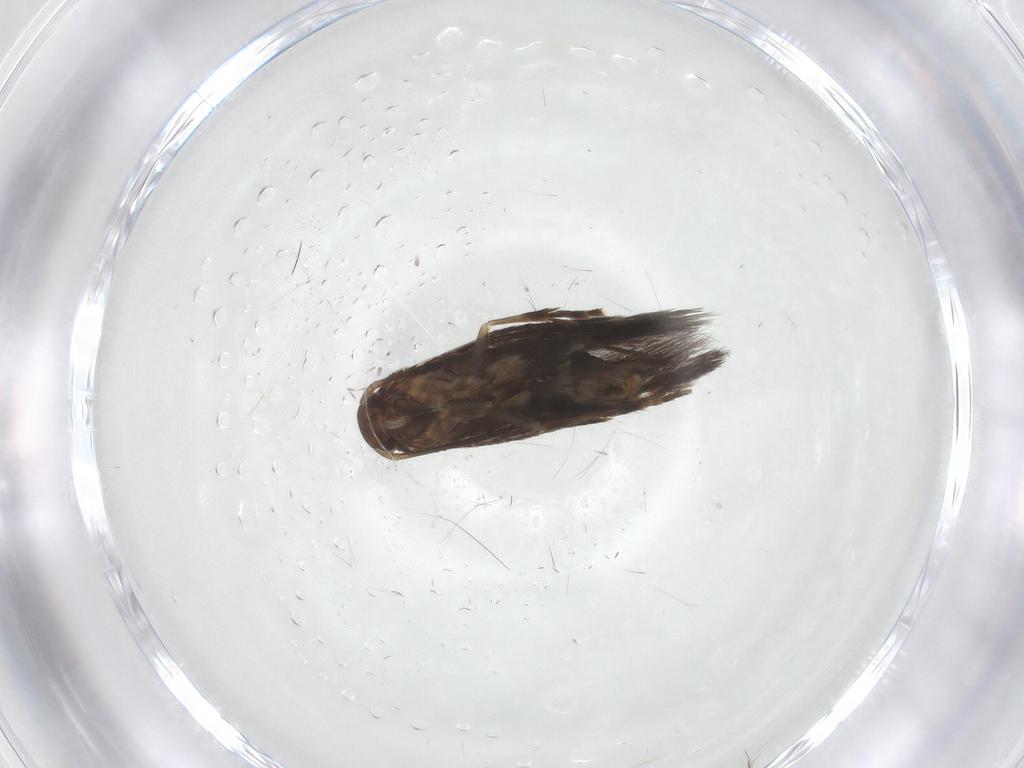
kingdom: Animalia
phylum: Arthropoda
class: Insecta
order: Lepidoptera
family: Elachistidae
